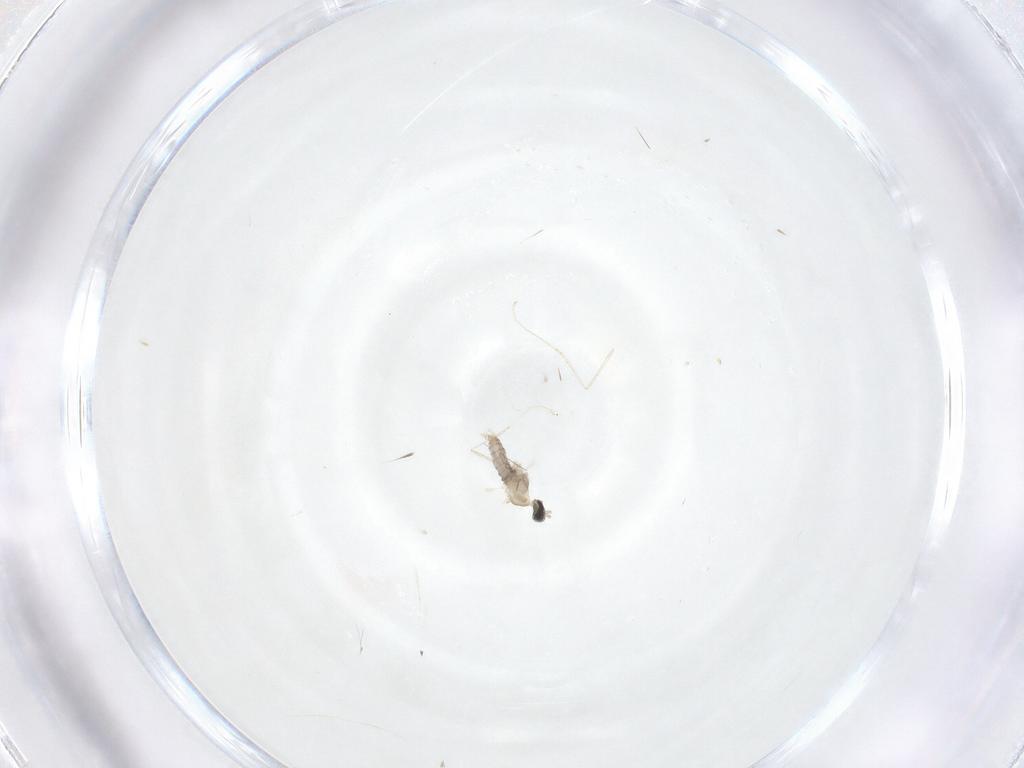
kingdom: Animalia
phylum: Arthropoda
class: Insecta
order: Diptera
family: Cecidomyiidae
